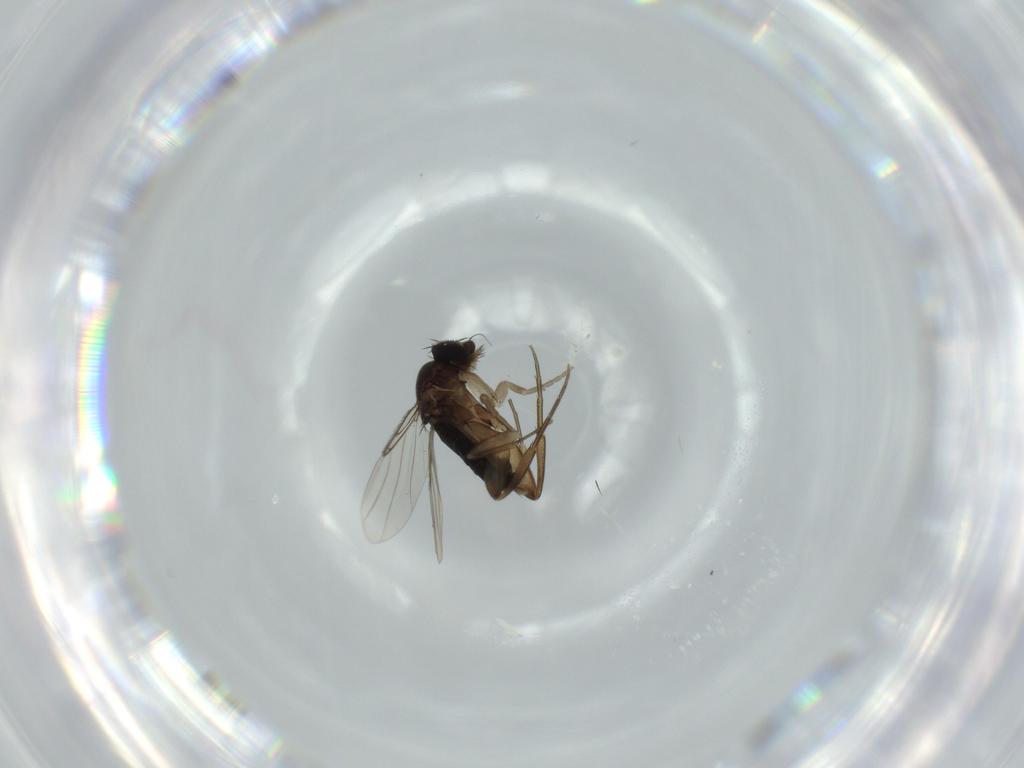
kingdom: Animalia
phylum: Arthropoda
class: Insecta
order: Diptera
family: Phoridae
